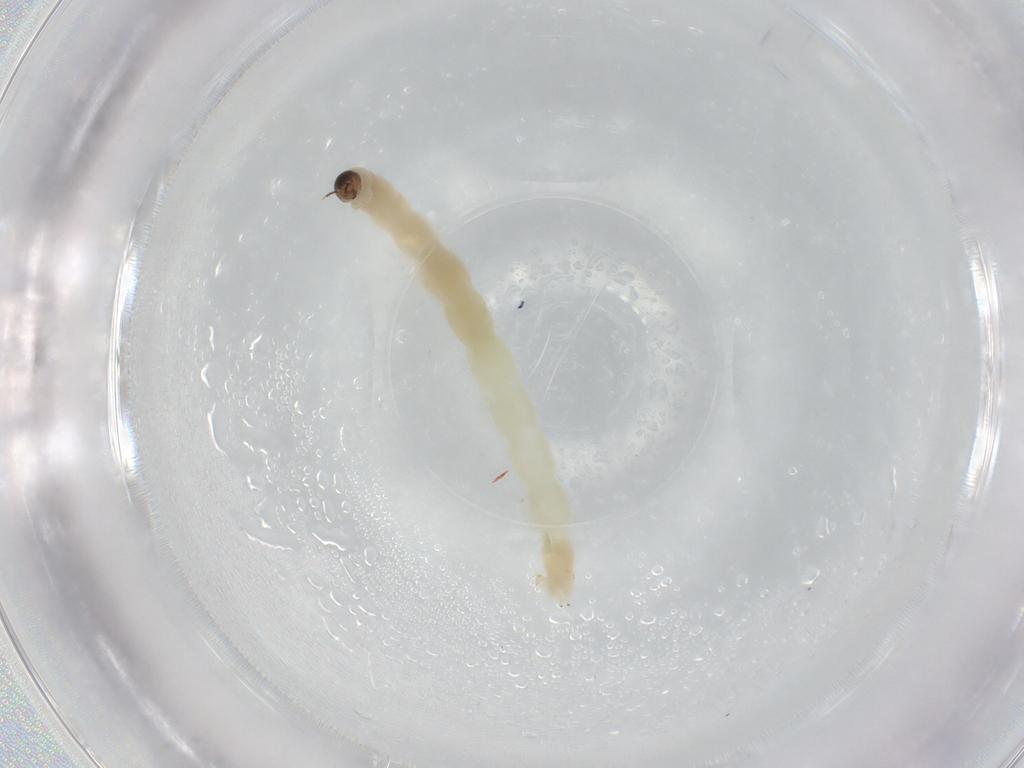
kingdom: Animalia
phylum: Arthropoda
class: Insecta
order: Diptera
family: Chironomidae
